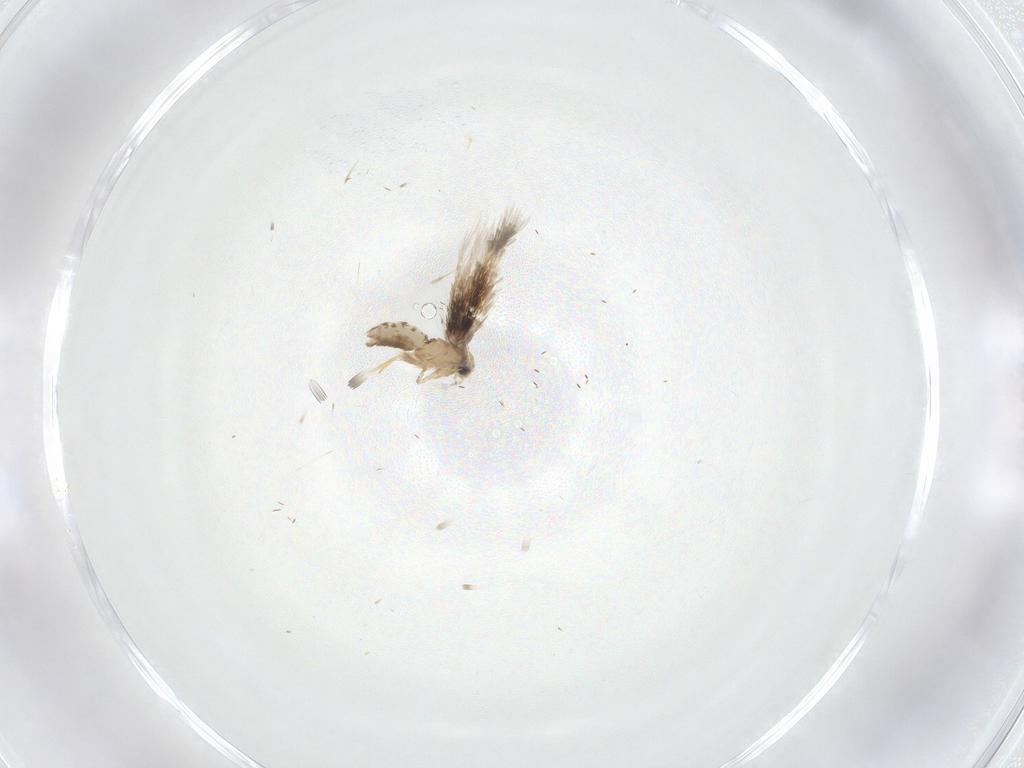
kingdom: Animalia
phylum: Arthropoda
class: Insecta
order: Lepidoptera
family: Nepticulidae
